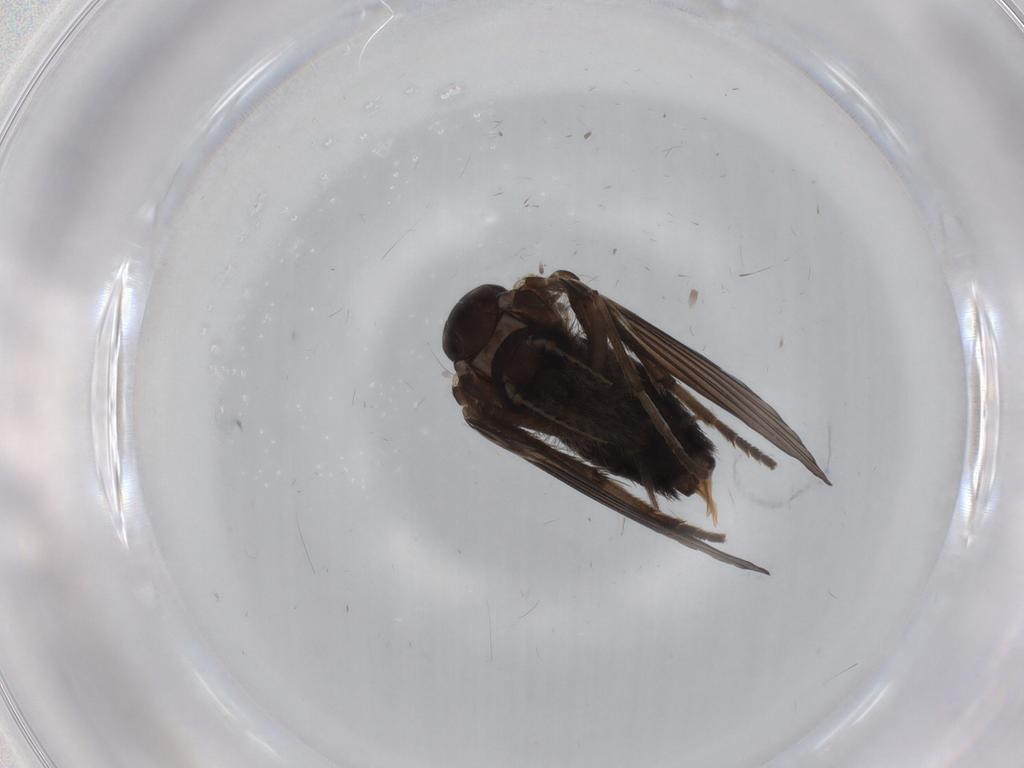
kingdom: Animalia
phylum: Arthropoda
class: Insecta
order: Diptera
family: Psychodidae
